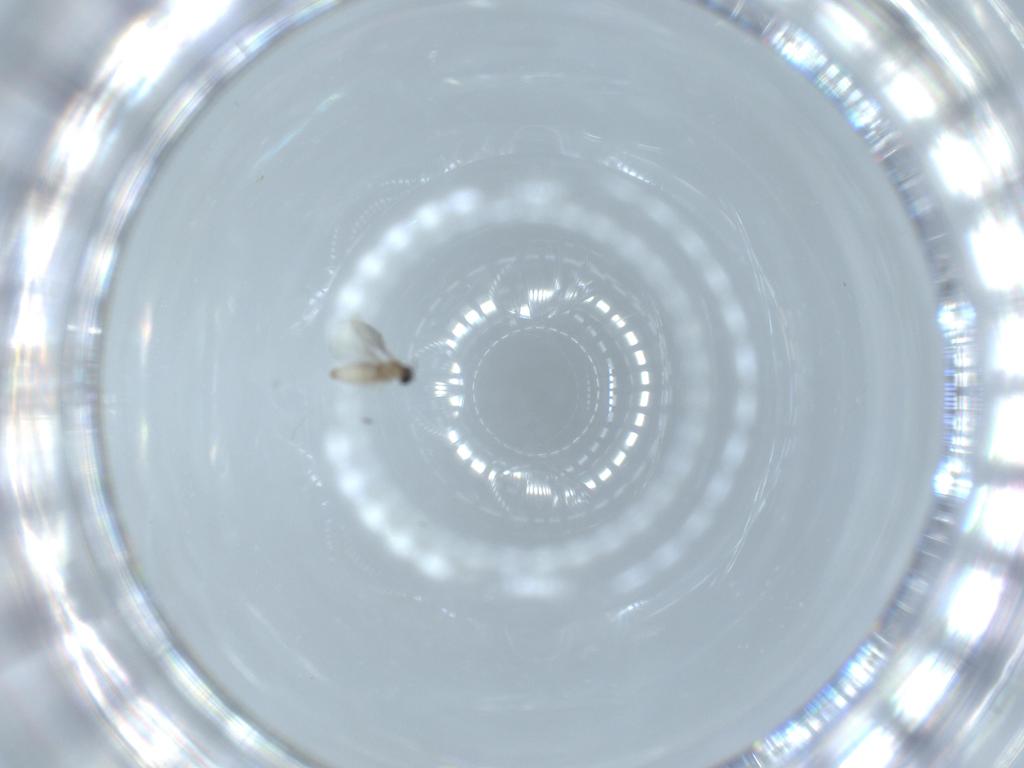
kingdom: Animalia
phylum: Arthropoda
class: Insecta
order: Diptera
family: Cecidomyiidae
